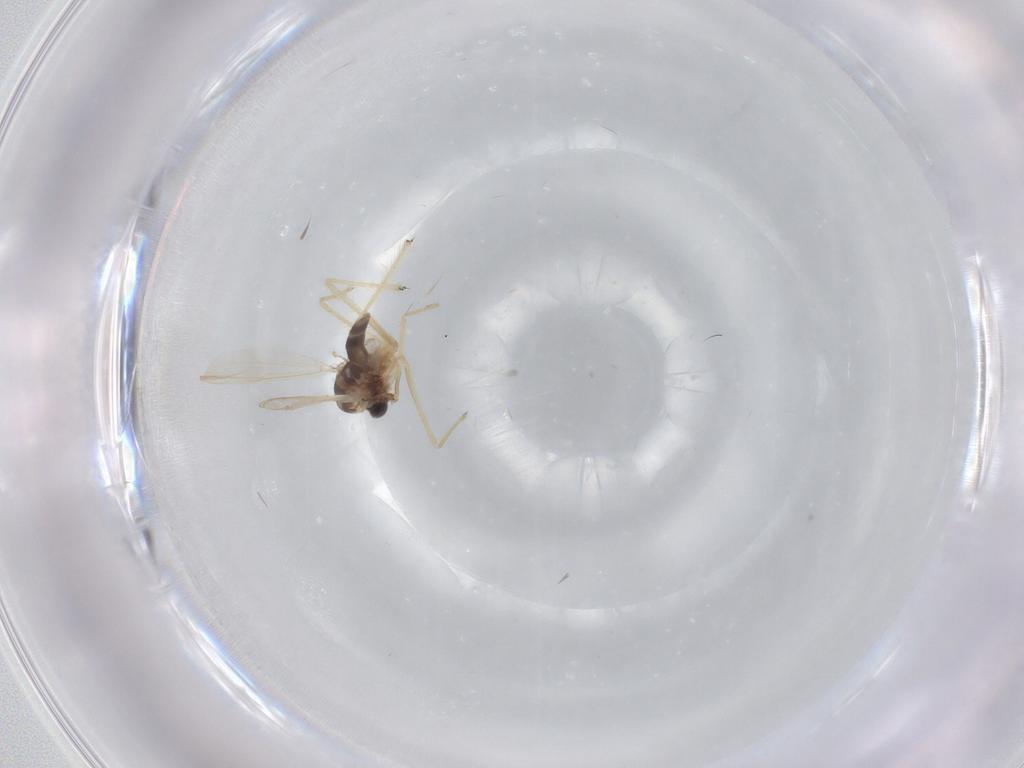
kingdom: Animalia
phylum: Arthropoda
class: Insecta
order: Diptera
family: Chironomidae
